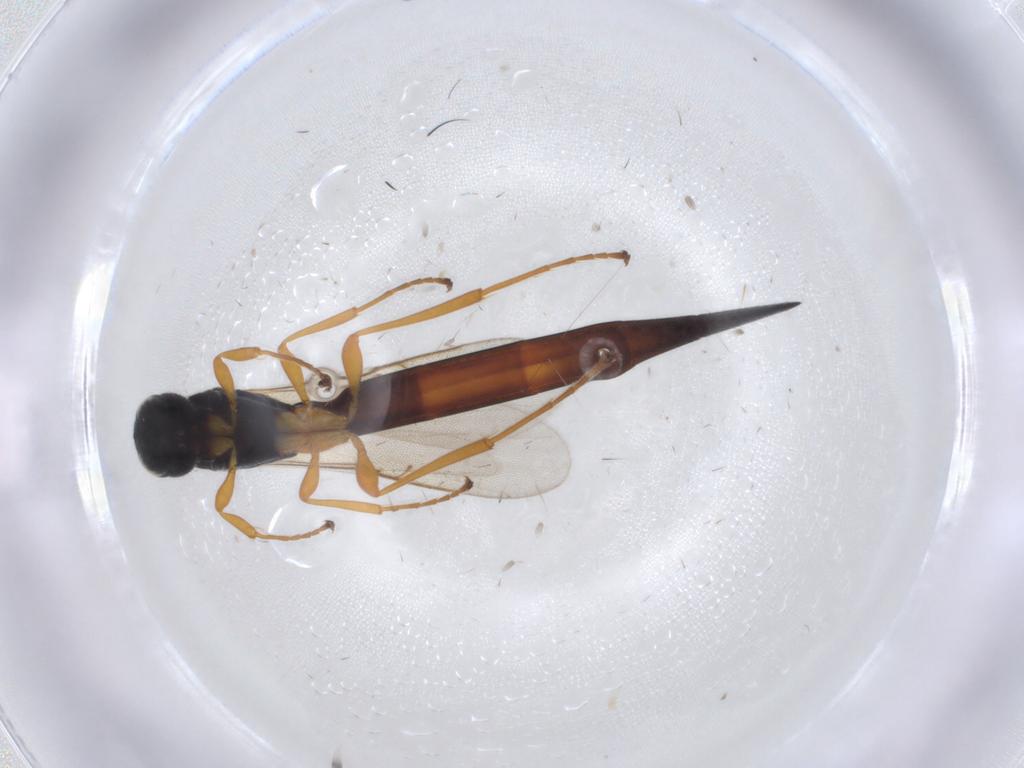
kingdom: Animalia
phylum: Arthropoda
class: Insecta
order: Hymenoptera
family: Scelionidae
